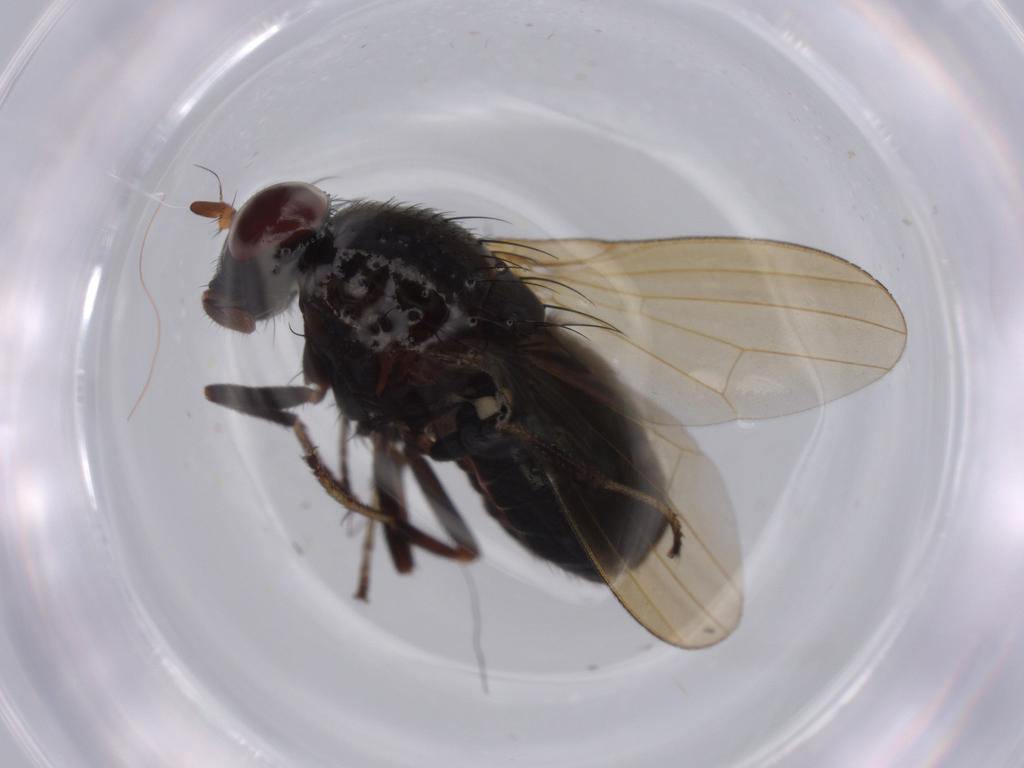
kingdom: Animalia
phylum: Arthropoda
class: Insecta
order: Diptera
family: Lauxaniidae
